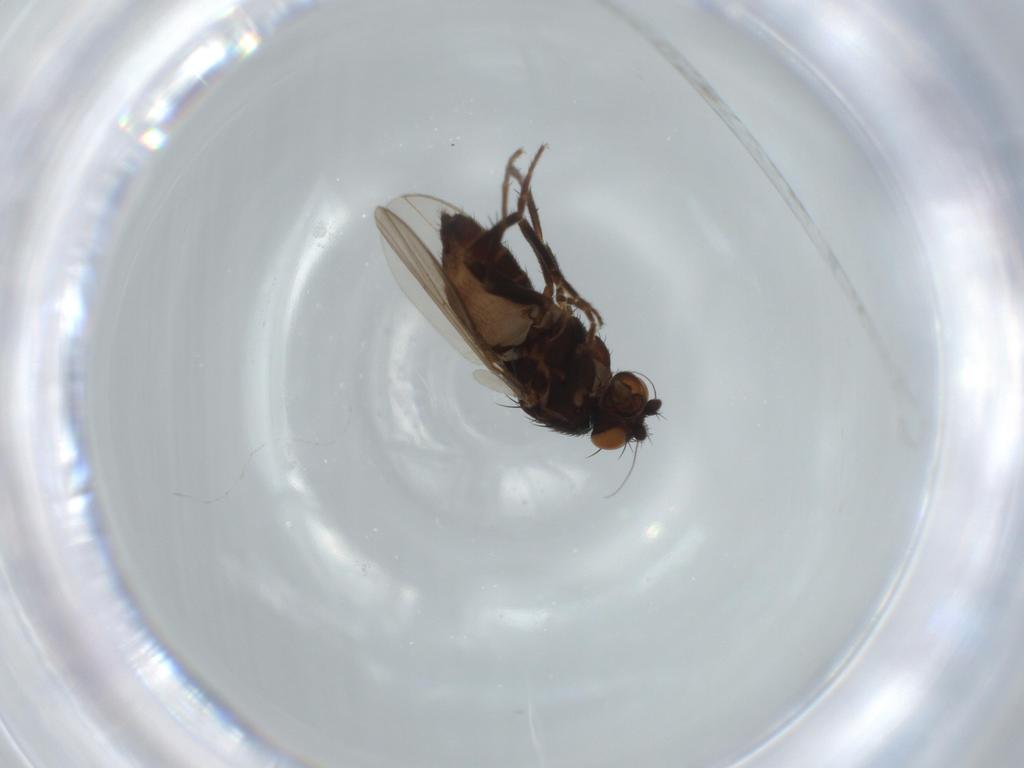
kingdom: Animalia
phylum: Arthropoda
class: Insecta
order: Diptera
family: Sphaeroceridae
